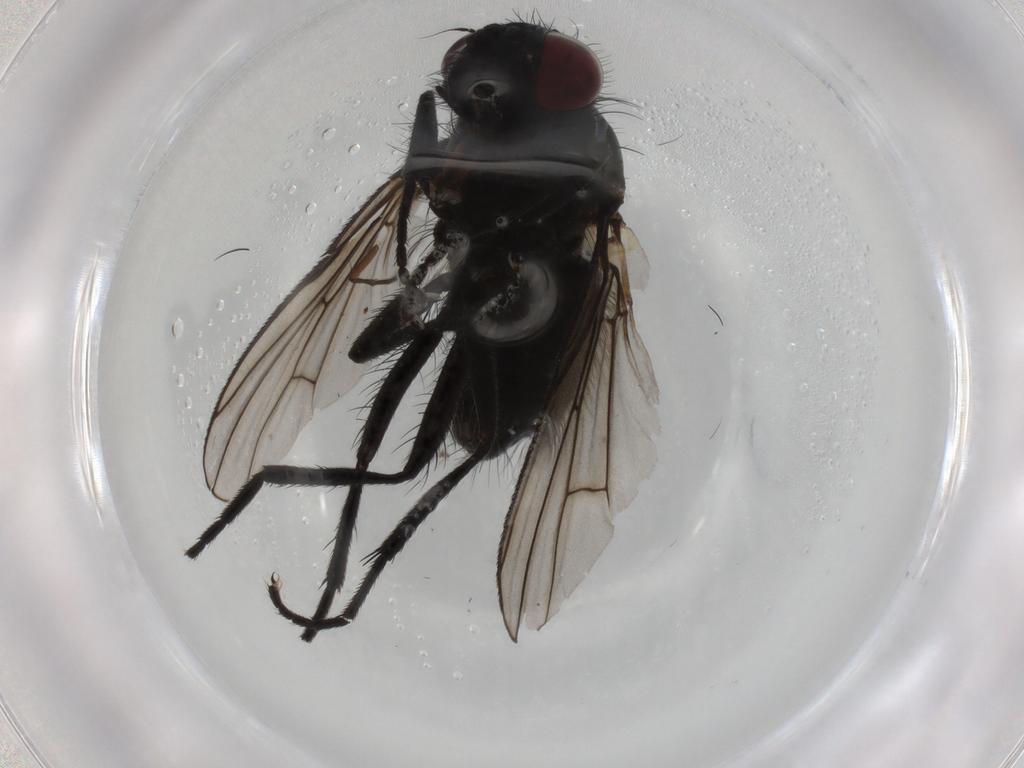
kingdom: Animalia
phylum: Arthropoda
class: Insecta
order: Diptera
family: Muscidae
